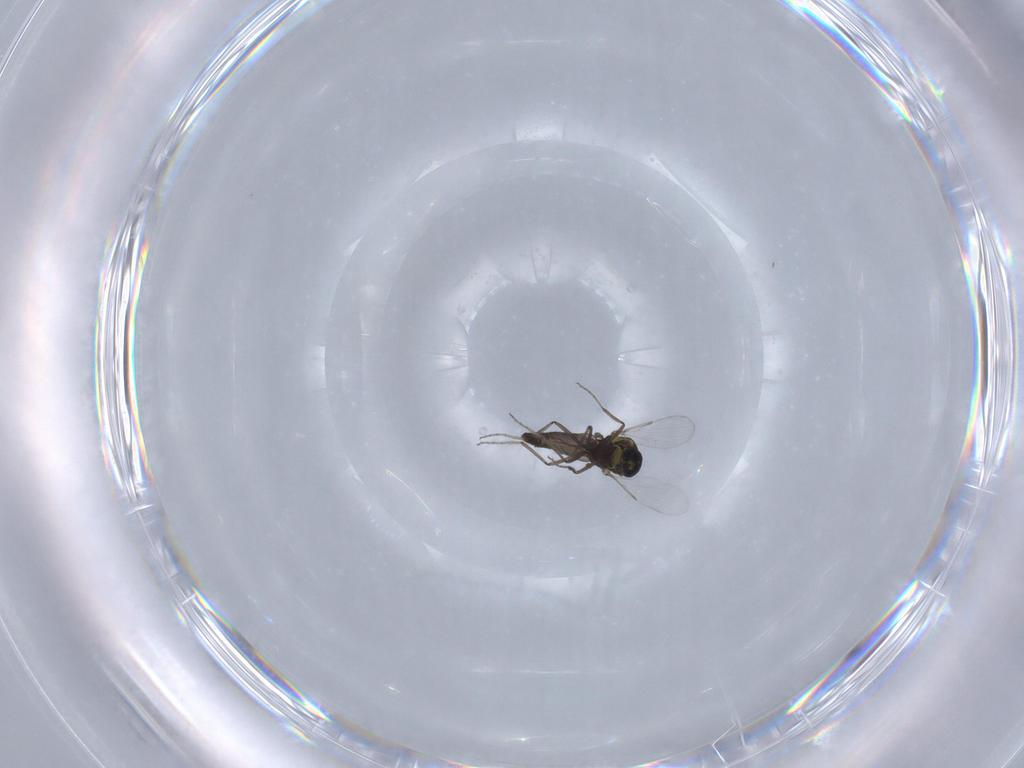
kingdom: Animalia
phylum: Arthropoda
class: Insecta
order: Diptera
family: Ceratopogonidae
